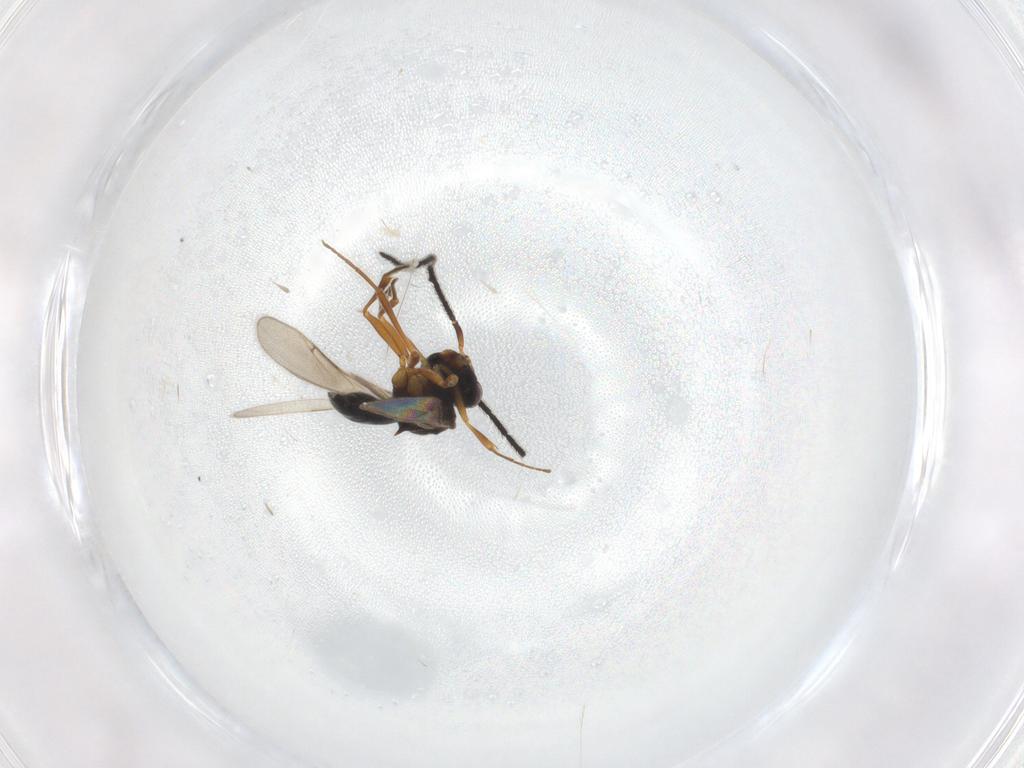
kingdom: Animalia
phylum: Arthropoda
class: Insecta
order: Hymenoptera
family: Scelionidae
